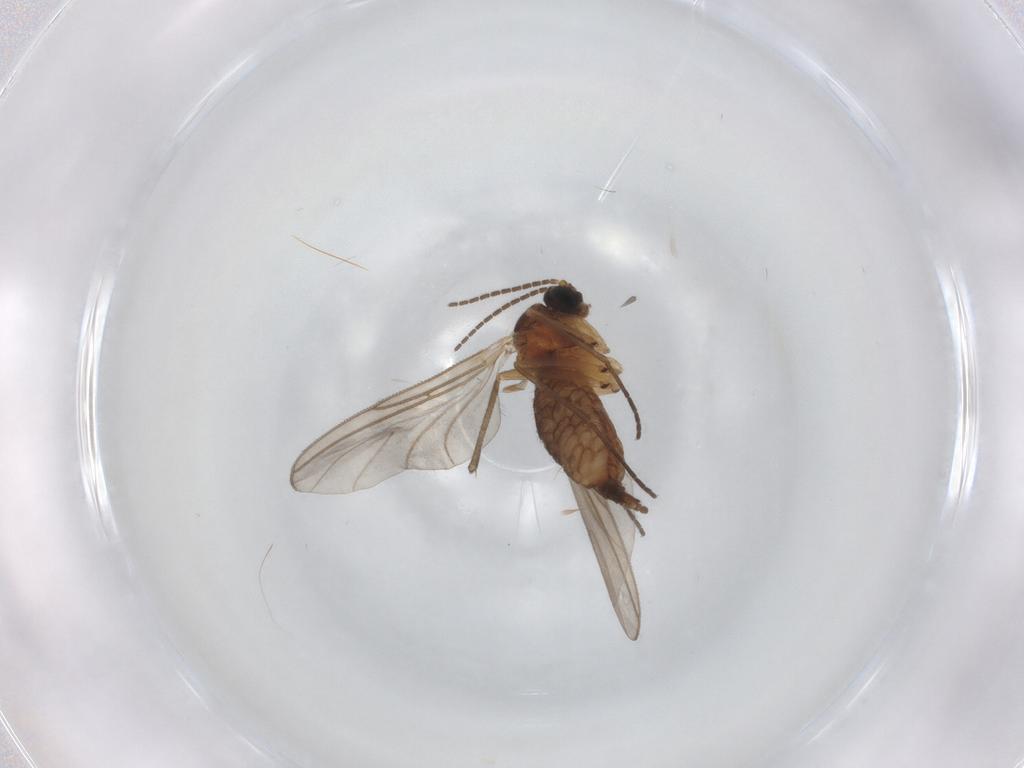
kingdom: Animalia
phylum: Arthropoda
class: Insecta
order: Diptera
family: Sciaridae
